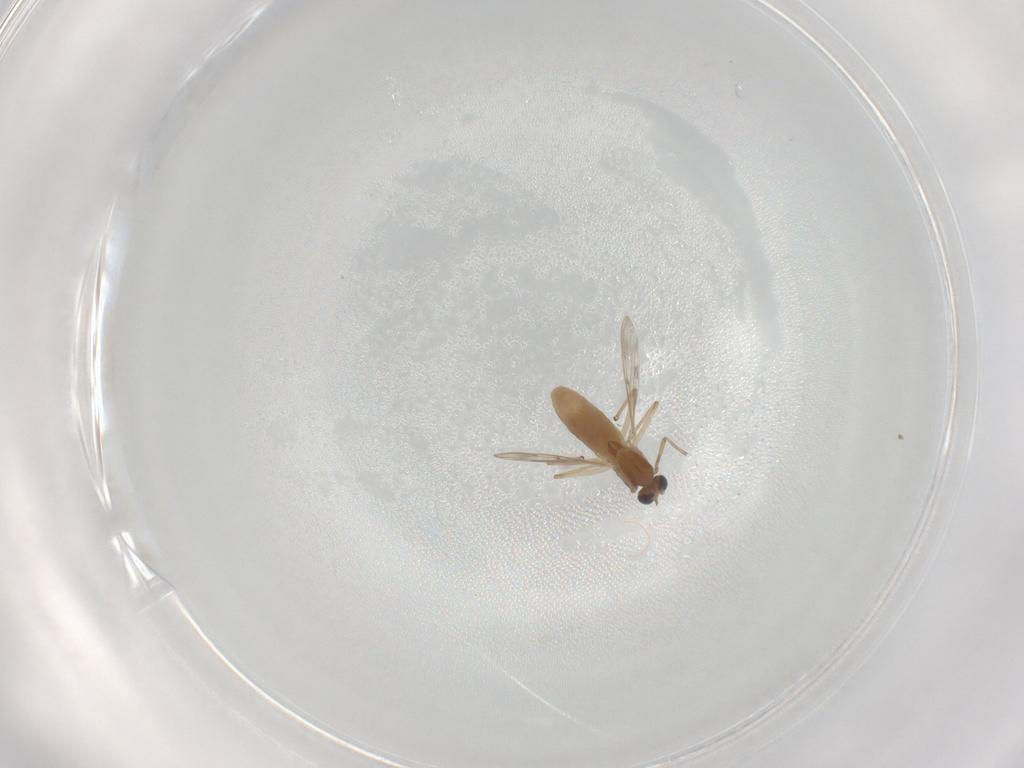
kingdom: Animalia
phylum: Arthropoda
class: Insecta
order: Diptera
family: Chironomidae
